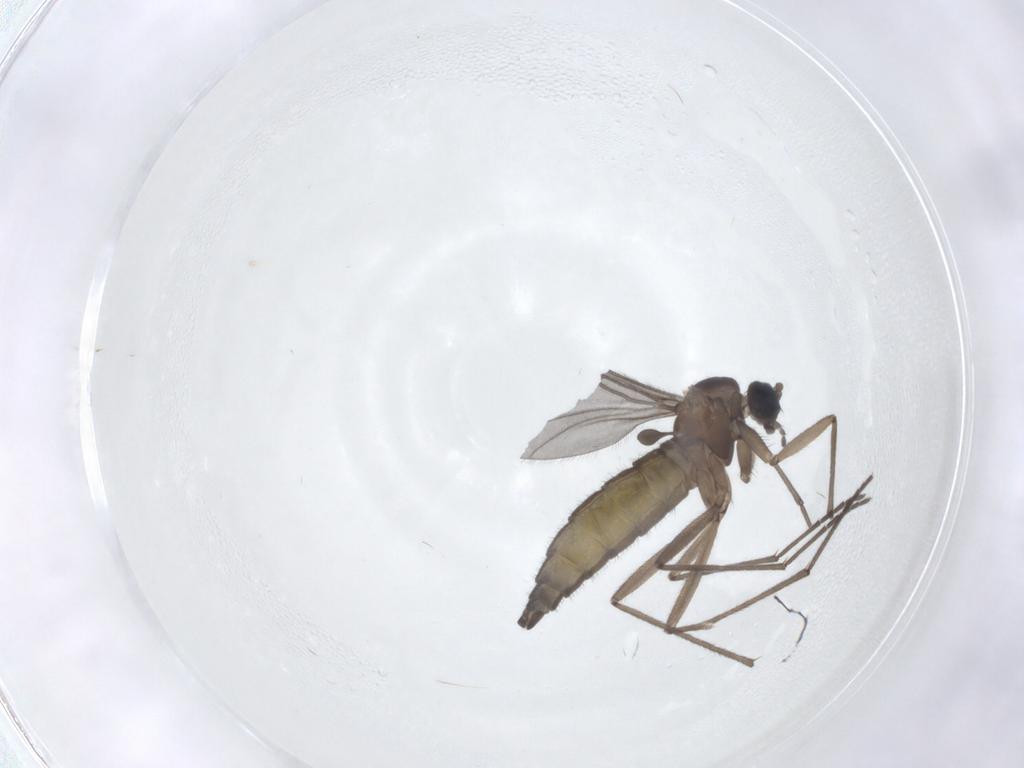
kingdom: Animalia
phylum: Arthropoda
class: Insecta
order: Diptera
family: Sciaridae
